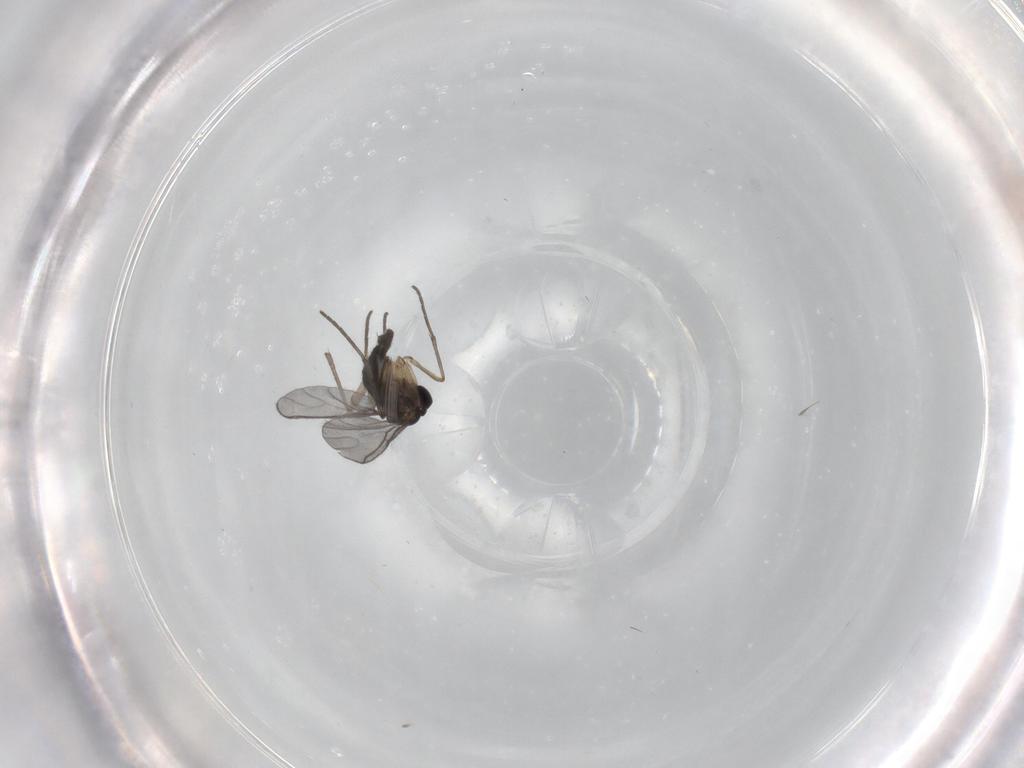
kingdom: Animalia
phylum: Arthropoda
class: Insecta
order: Diptera
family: Sciaridae
